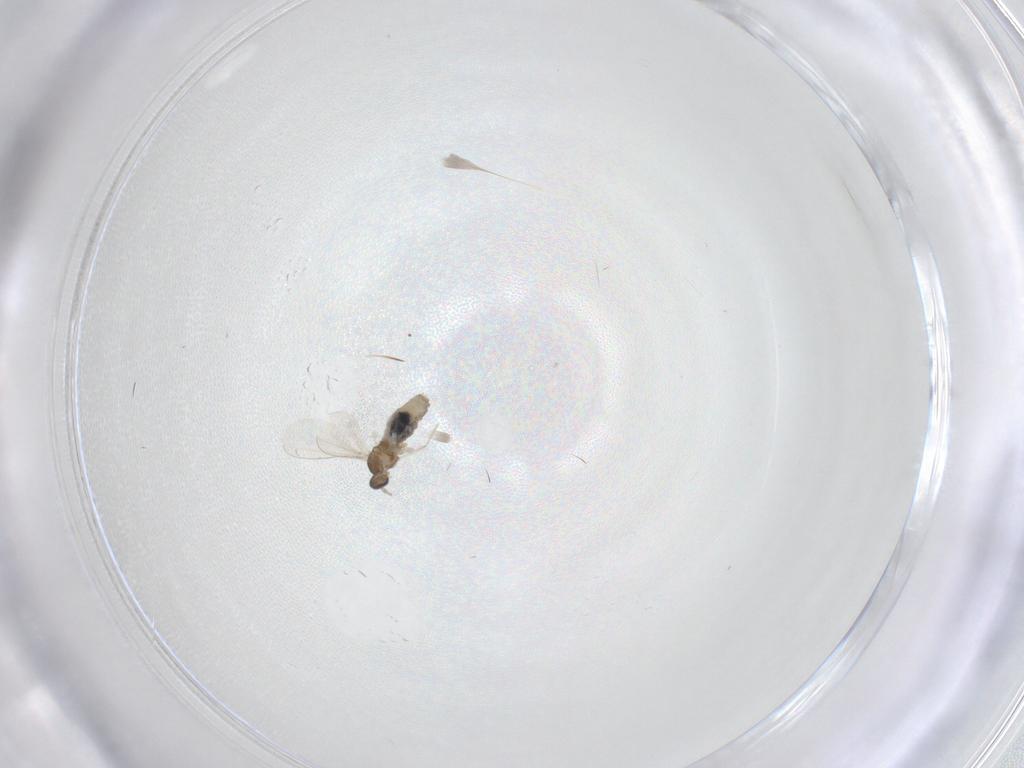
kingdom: Animalia
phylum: Arthropoda
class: Insecta
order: Diptera
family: Cecidomyiidae
